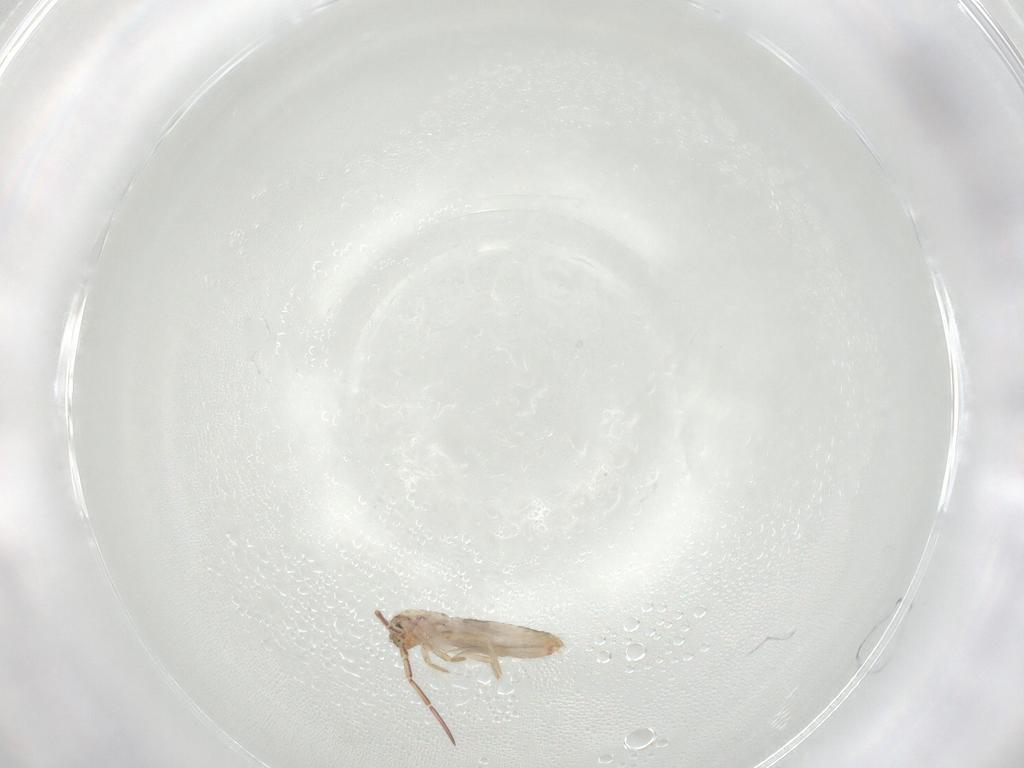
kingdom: Animalia
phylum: Arthropoda
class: Collembola
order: Entomobryomorpha
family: Entomobryidae
